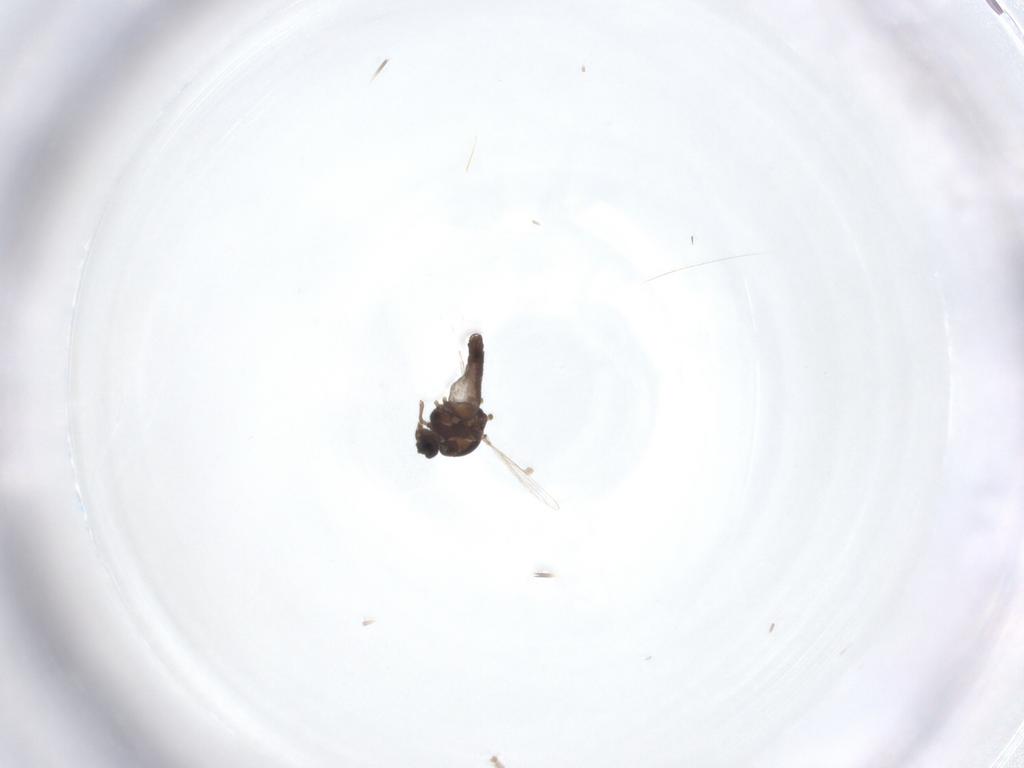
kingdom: Animalia
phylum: Arthropoda
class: Insecta
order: Diptera
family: Ceratopogonidae
